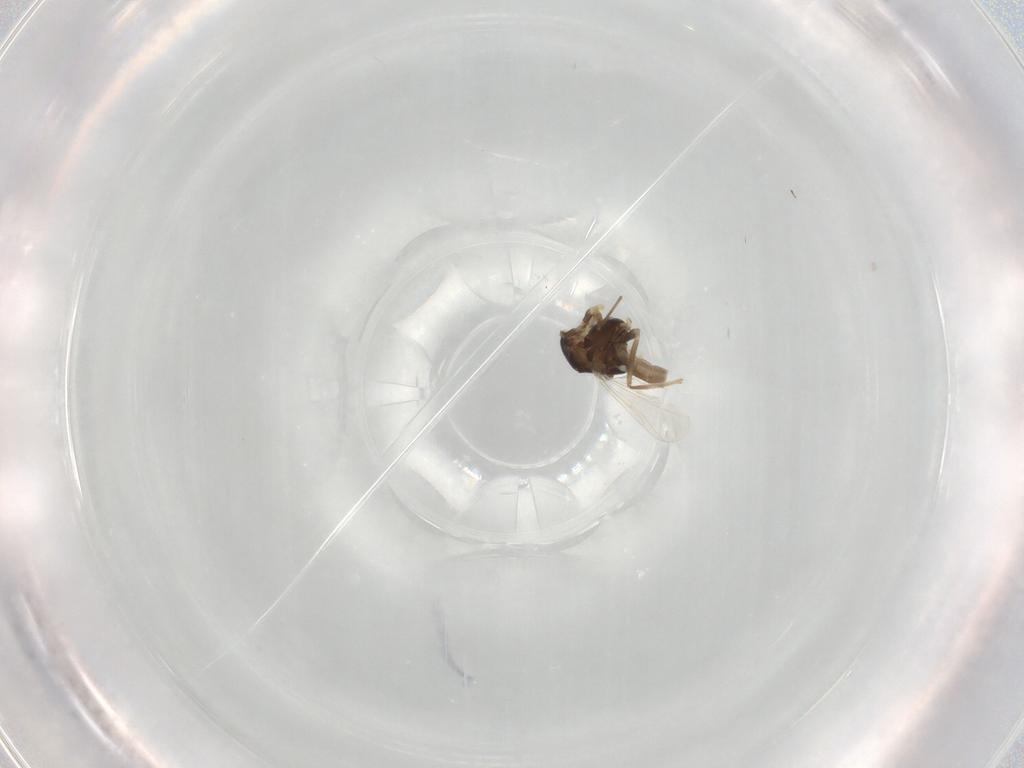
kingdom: Animalia
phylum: Arthropoda
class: Insecta
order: Diptera
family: Muscidae
